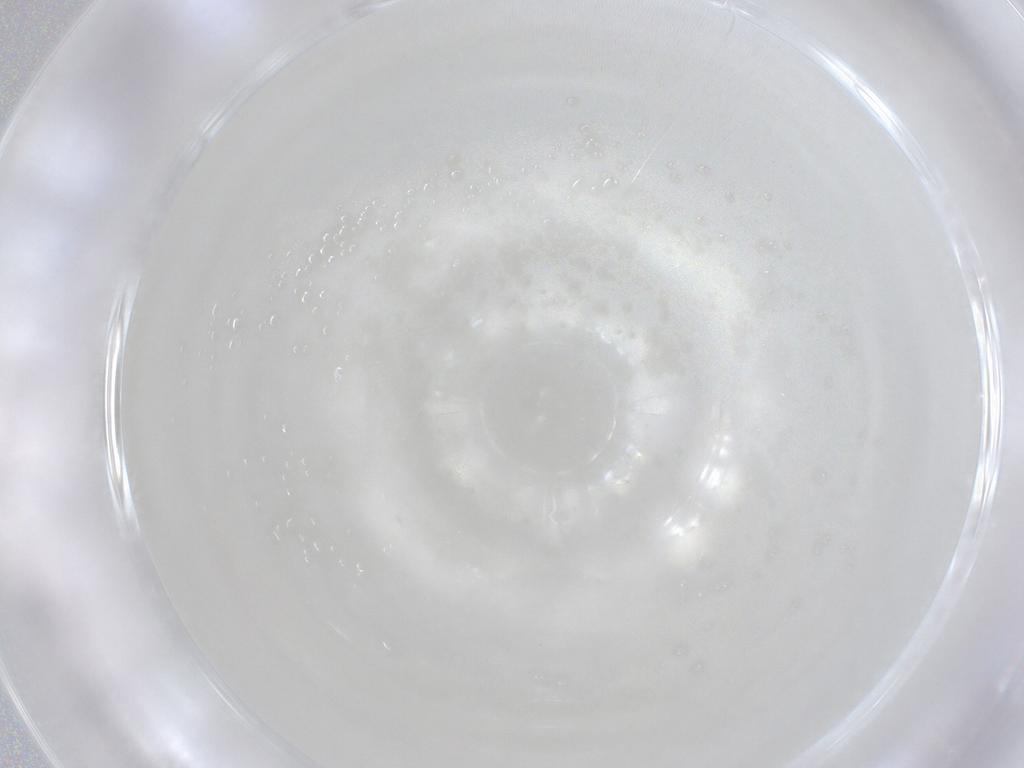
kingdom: Animalia
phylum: Arthropoda
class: Arachnida
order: Trombidiformes
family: Eupodidae
